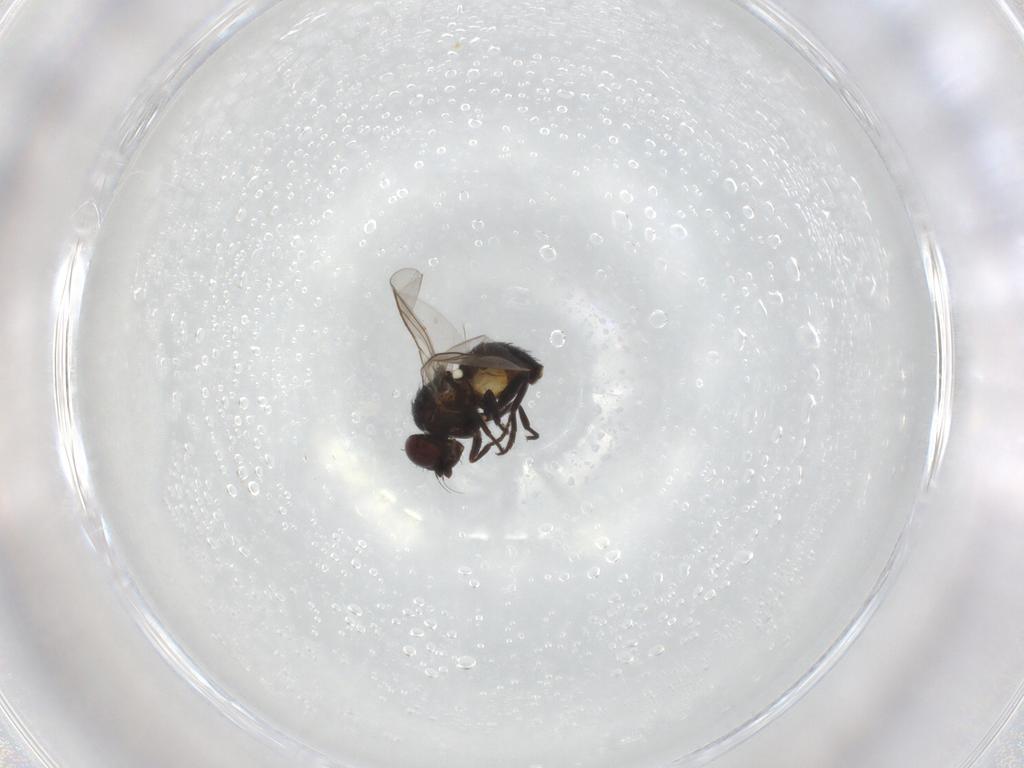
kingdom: Animalia
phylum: Arthropoda
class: Insecta
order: Diptera
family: Agromyzidae
